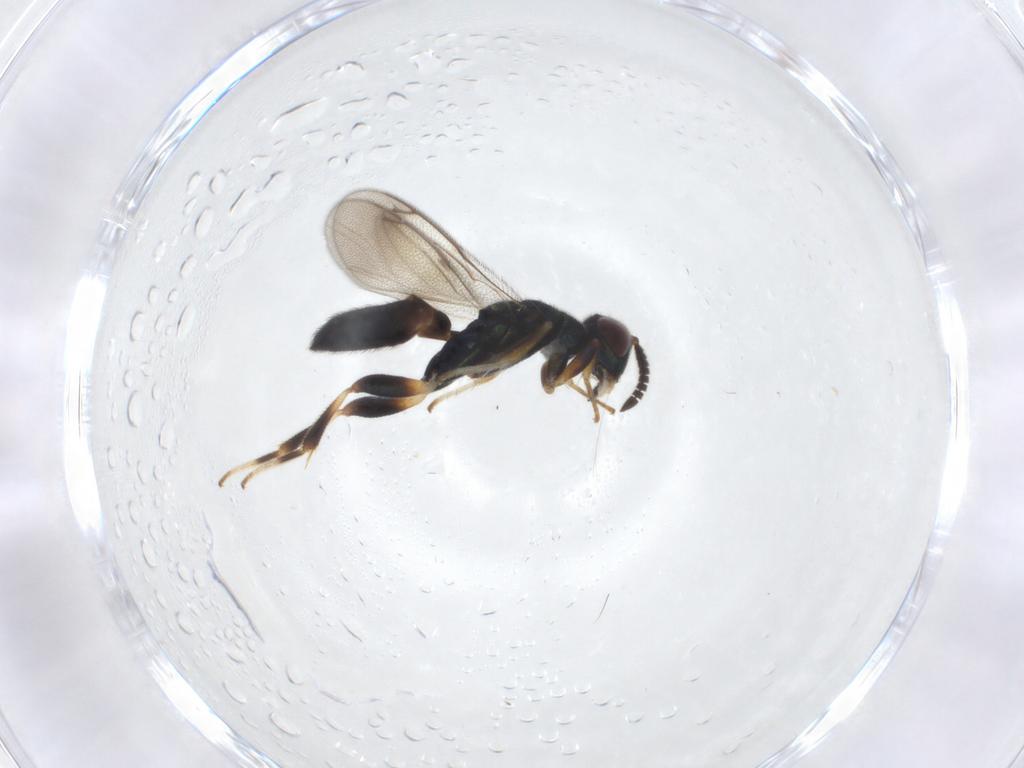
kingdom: Animalia
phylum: Arthropoda
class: Insecta
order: Hymenoptera
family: Cleonyminae
